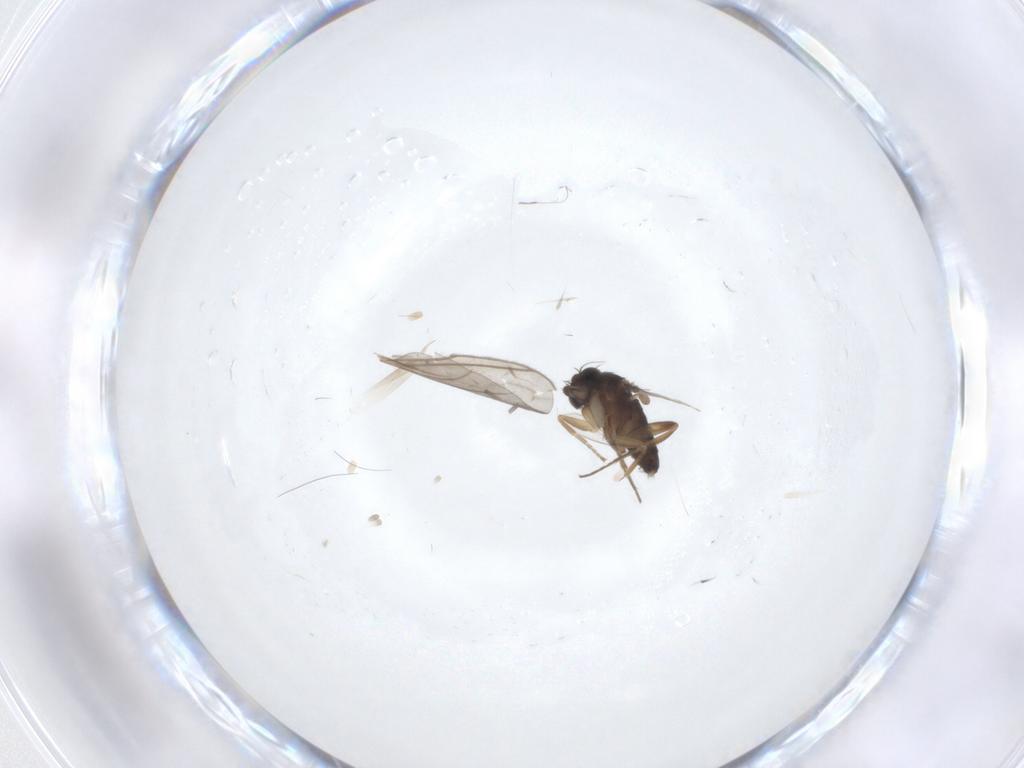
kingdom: Animalia
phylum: Arthropoda
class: Insecta
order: Diptera
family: Phoridae
